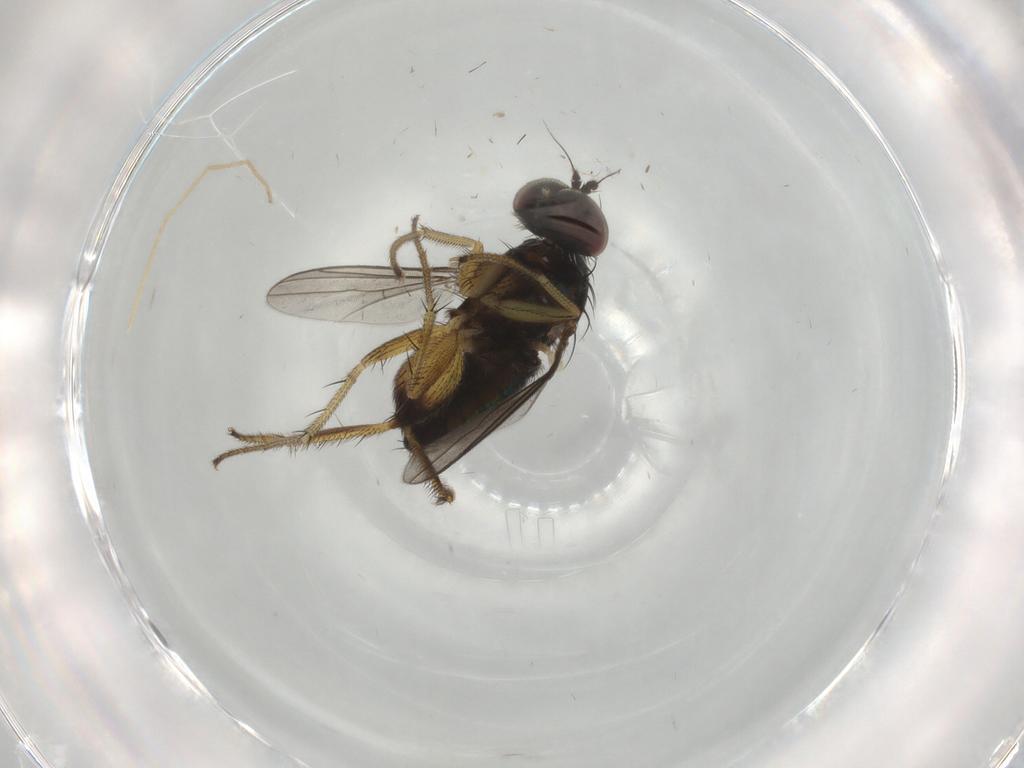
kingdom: Animalia
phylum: Arthropoda
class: Insecta
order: Diptera
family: Dolichopodidae
